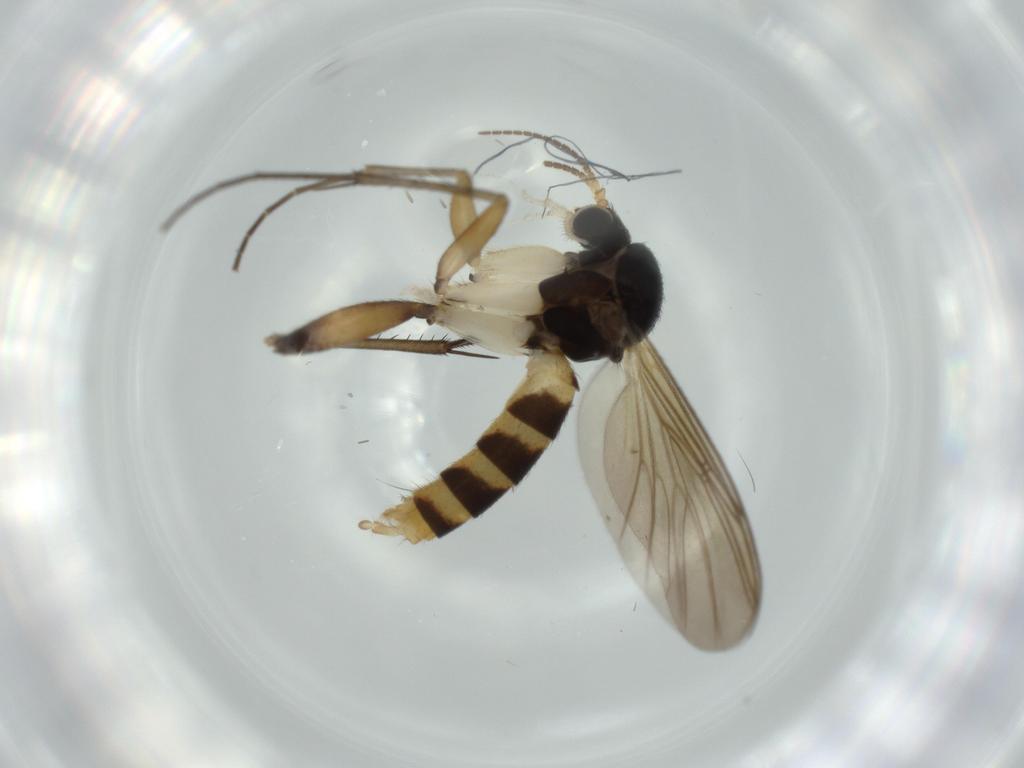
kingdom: Animalia
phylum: Arthropoda
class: Insecta
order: Diptera
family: Mycetophilidae
